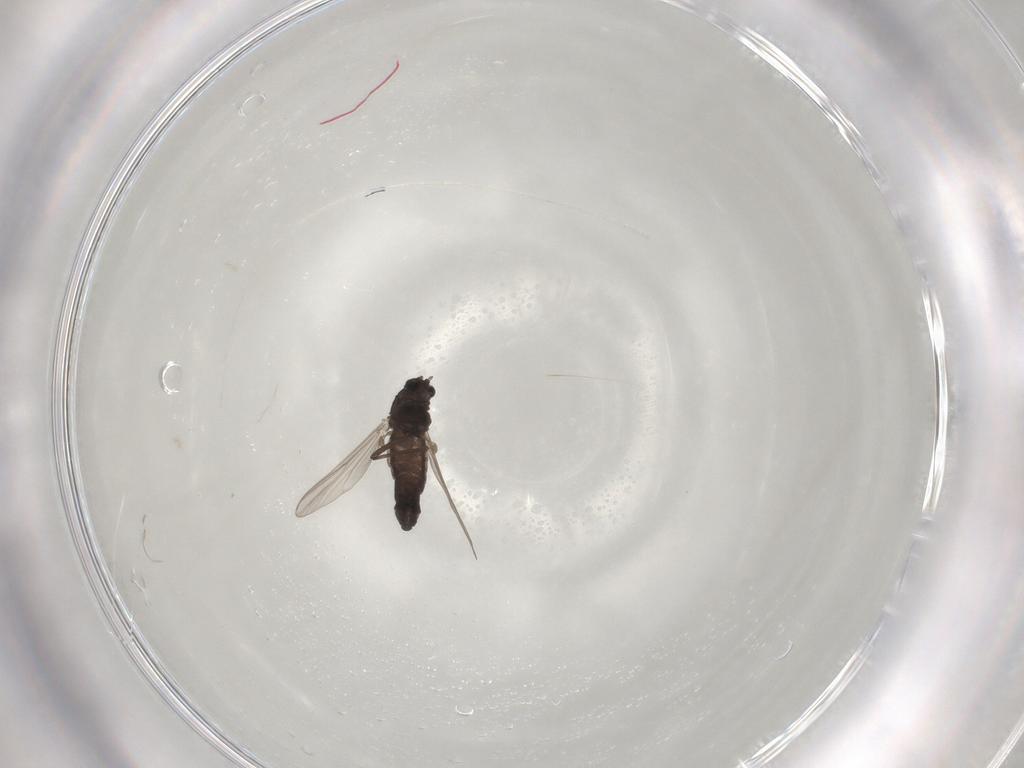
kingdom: Animalia
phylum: Arthropoda
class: Insecta
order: Diptera
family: Chironomidae
